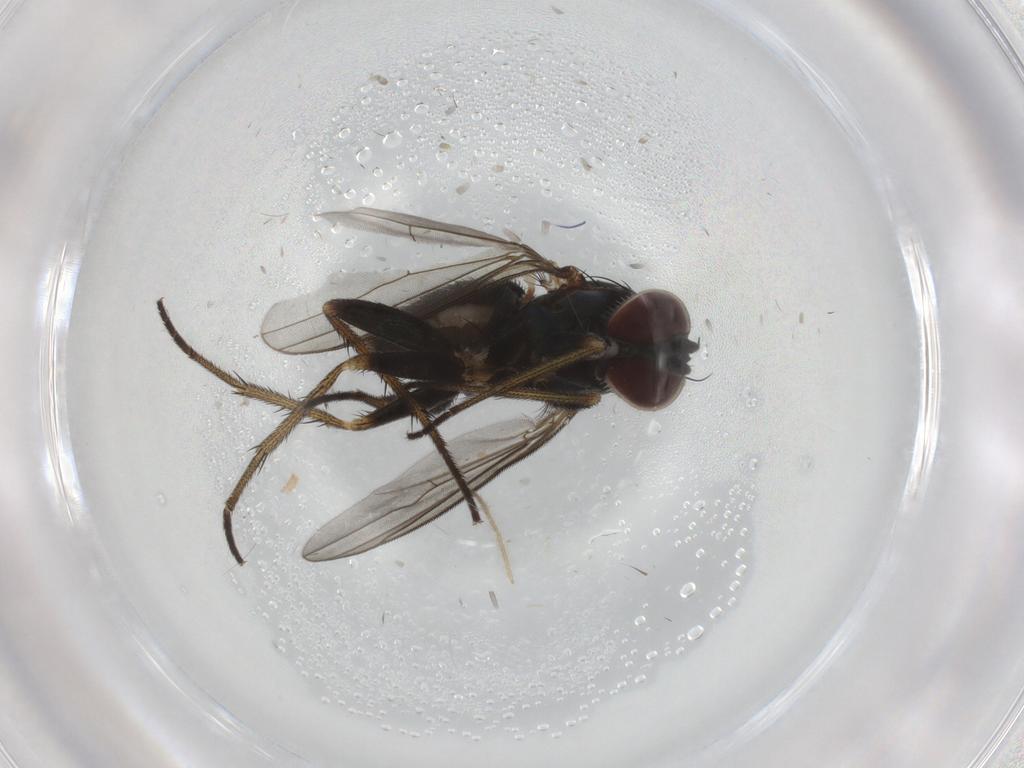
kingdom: Animalia
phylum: Arthropoda
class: Insecta
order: Diptera
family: Dolichopodidae
